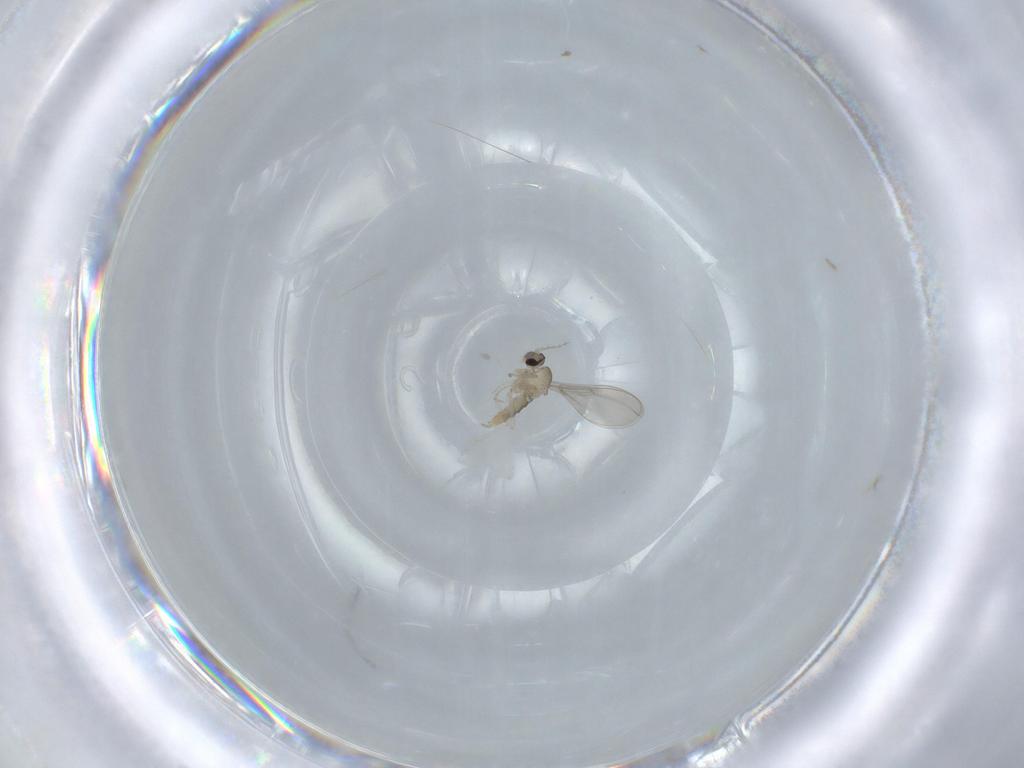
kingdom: Animalia
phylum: Arthropoda
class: Insecta
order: Diptera
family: Cecidomyiidae
